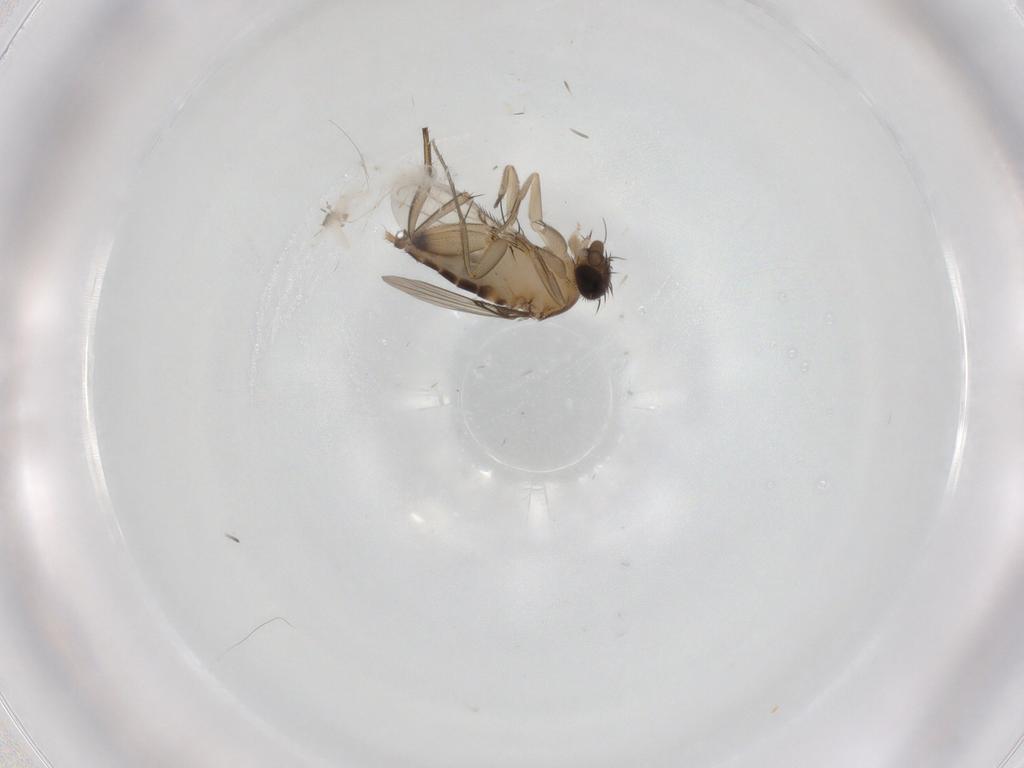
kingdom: Animalia
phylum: Arthropoda
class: Insecta
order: Diptera
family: Phoridae
